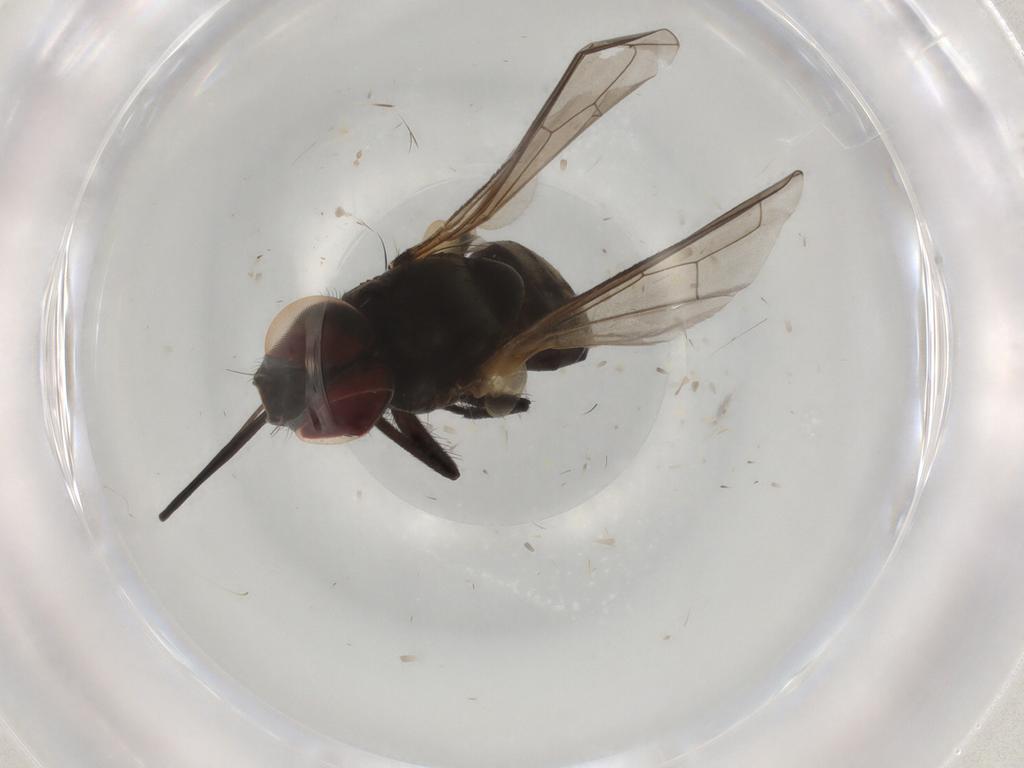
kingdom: Animalia
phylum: Arthropoda
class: Insecta
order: Diptera
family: Tachinidae
